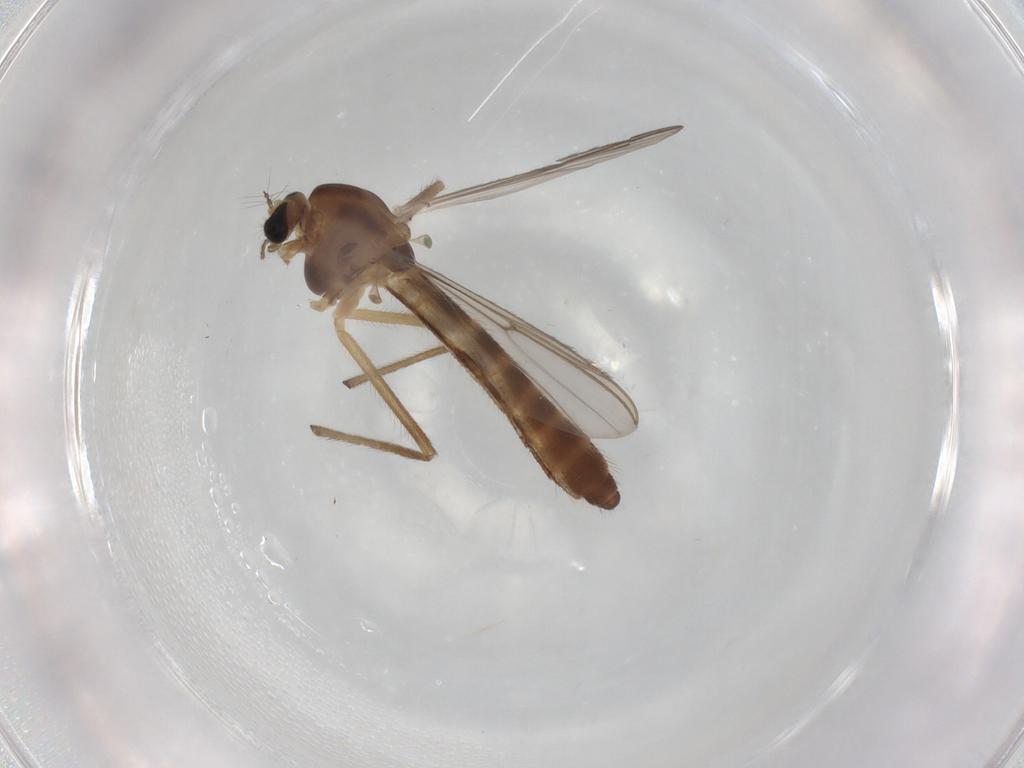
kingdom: Animalia
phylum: Arthropoda
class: Insecta
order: Diptera
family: Chironomidae
